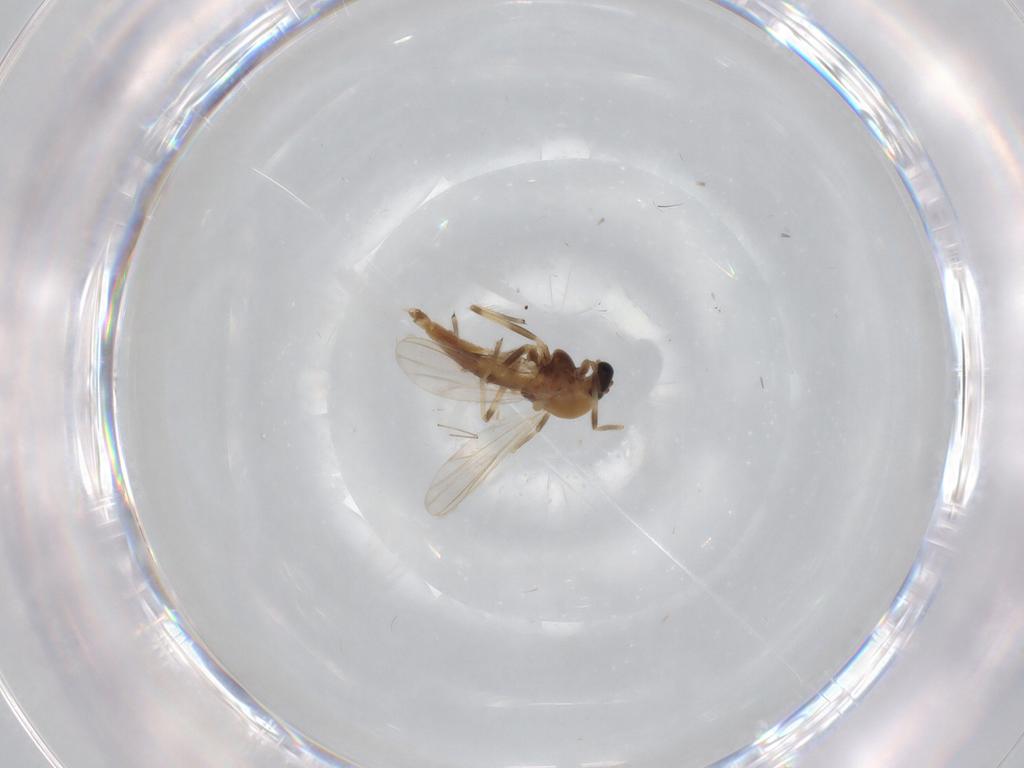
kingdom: Animalia
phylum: Arthropoda
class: Insecta
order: Diptera
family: Chironomidae
